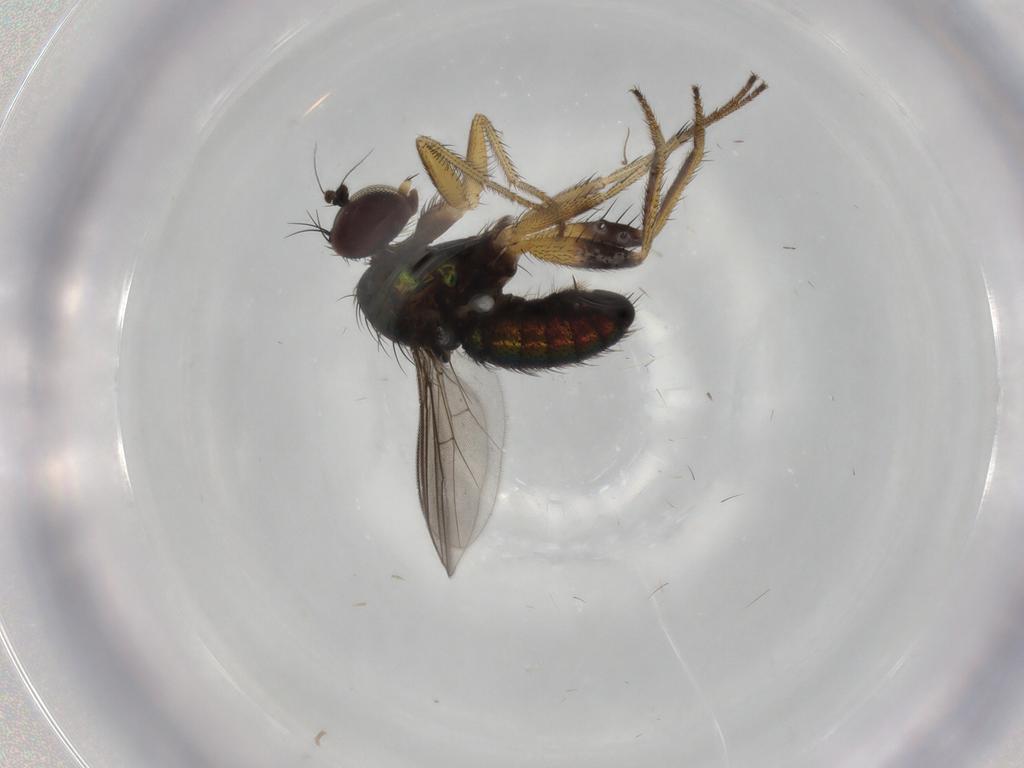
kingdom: Animalia
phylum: Arthropoda
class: Insecta
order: Diptera
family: Dolichopodidae
